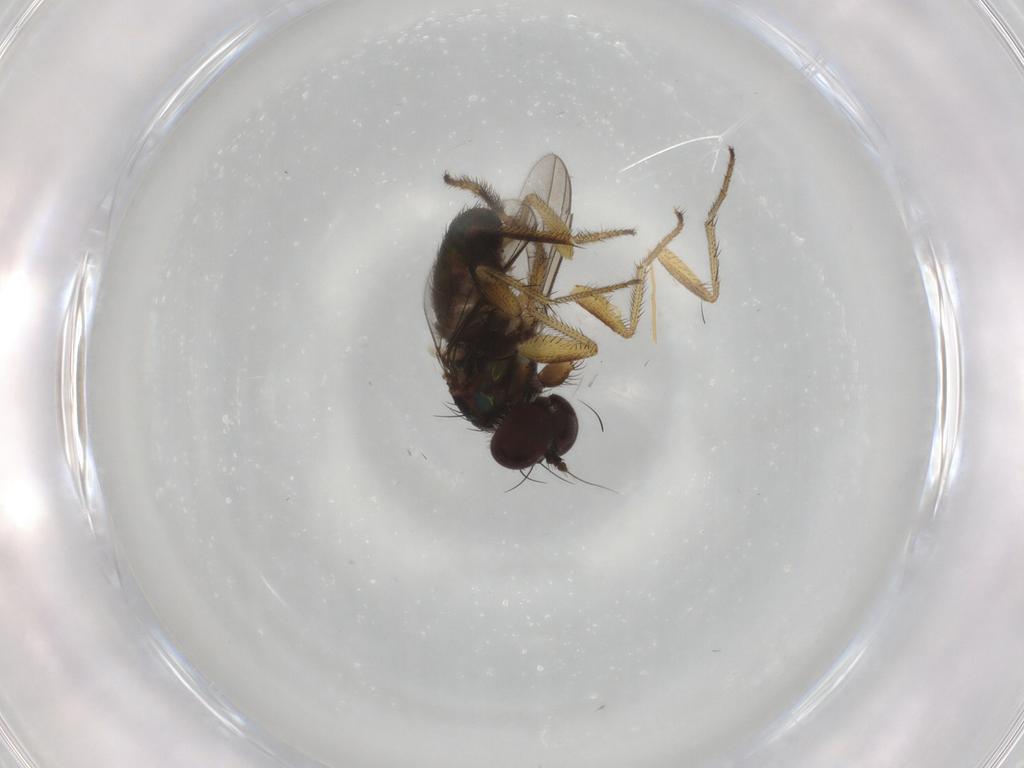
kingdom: Animalia
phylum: Arthropoda
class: Insecta
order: Diptera
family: Dolichopodidae
